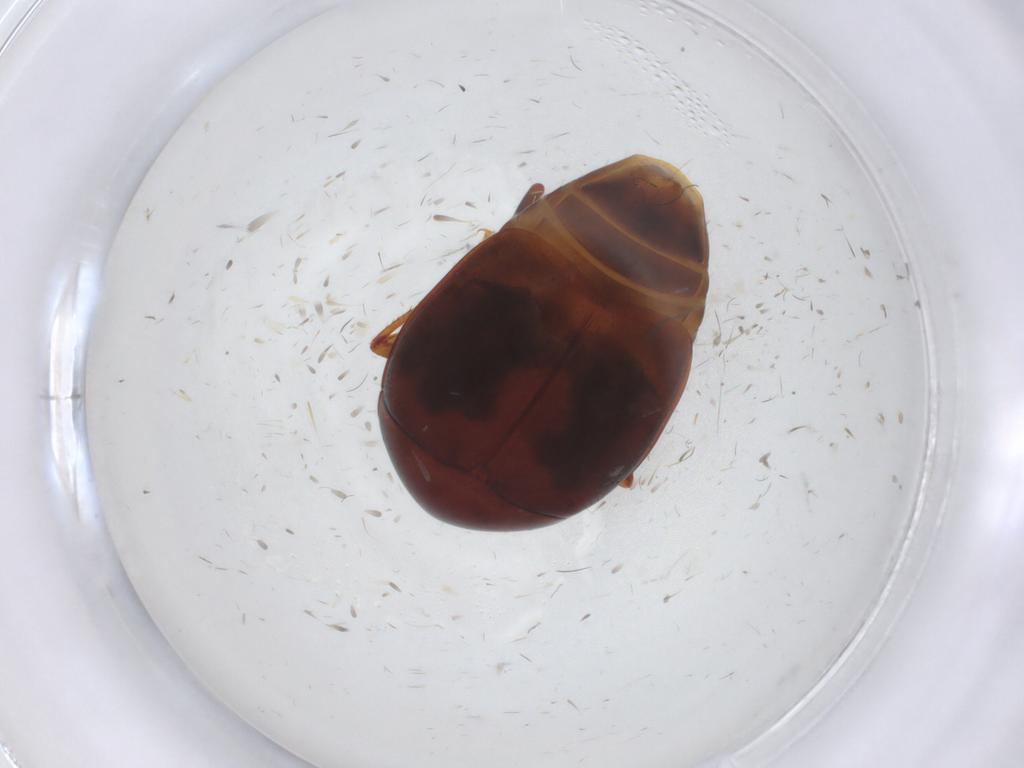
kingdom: Animalia
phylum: Arthropoda
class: Insecta
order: Coleoptera
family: Staphylinidae
